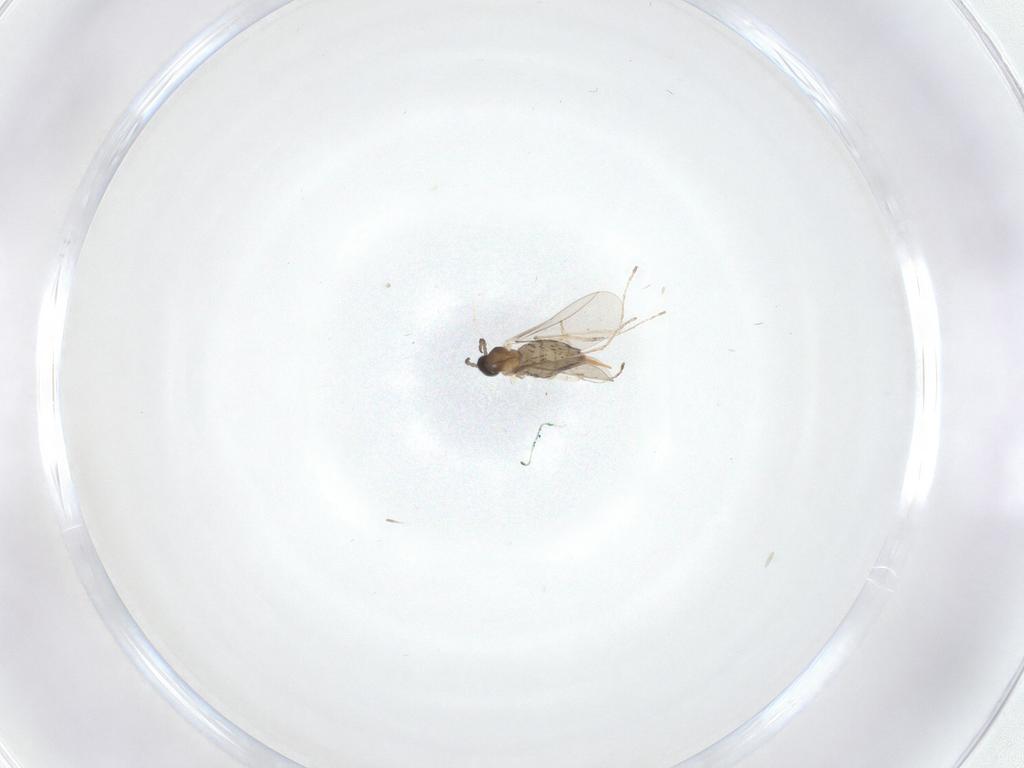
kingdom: Animalia
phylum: Arthropoda
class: Insecta
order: Diptera
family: Cecidomyiidae
